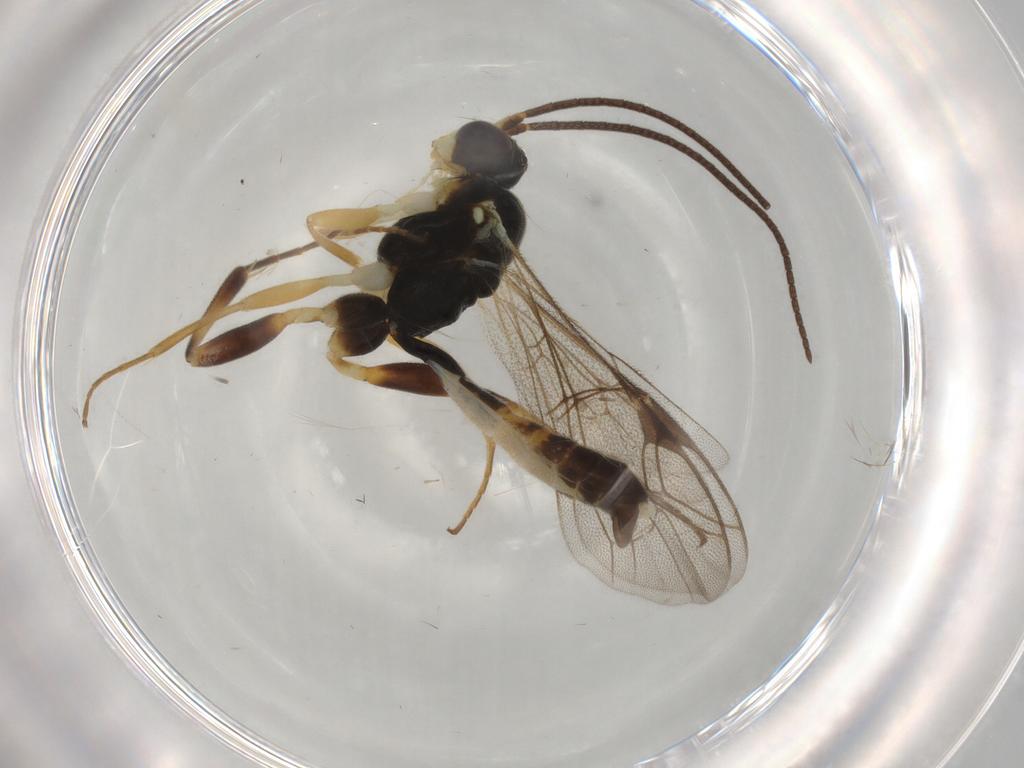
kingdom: Animalia
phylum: Arthropoda
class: Insecta
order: Hymenoptera
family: Ichneumonidae
